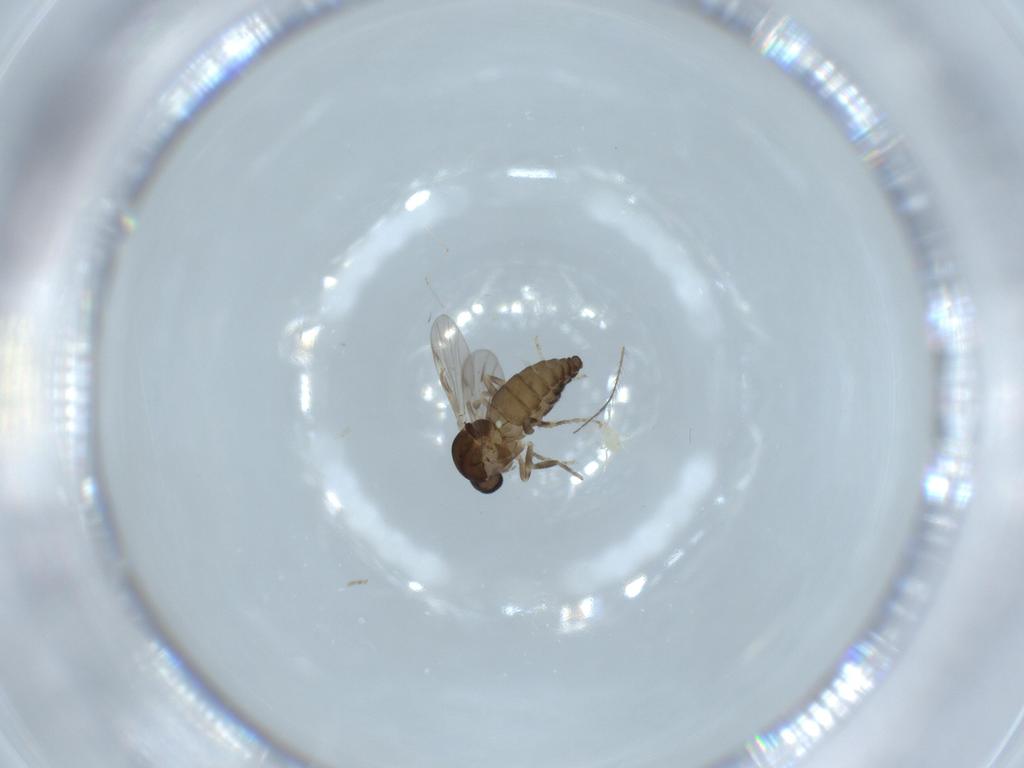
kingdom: Animalia
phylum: Arthropoda
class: Insecta
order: Diptera
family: Ceratopogonidae
